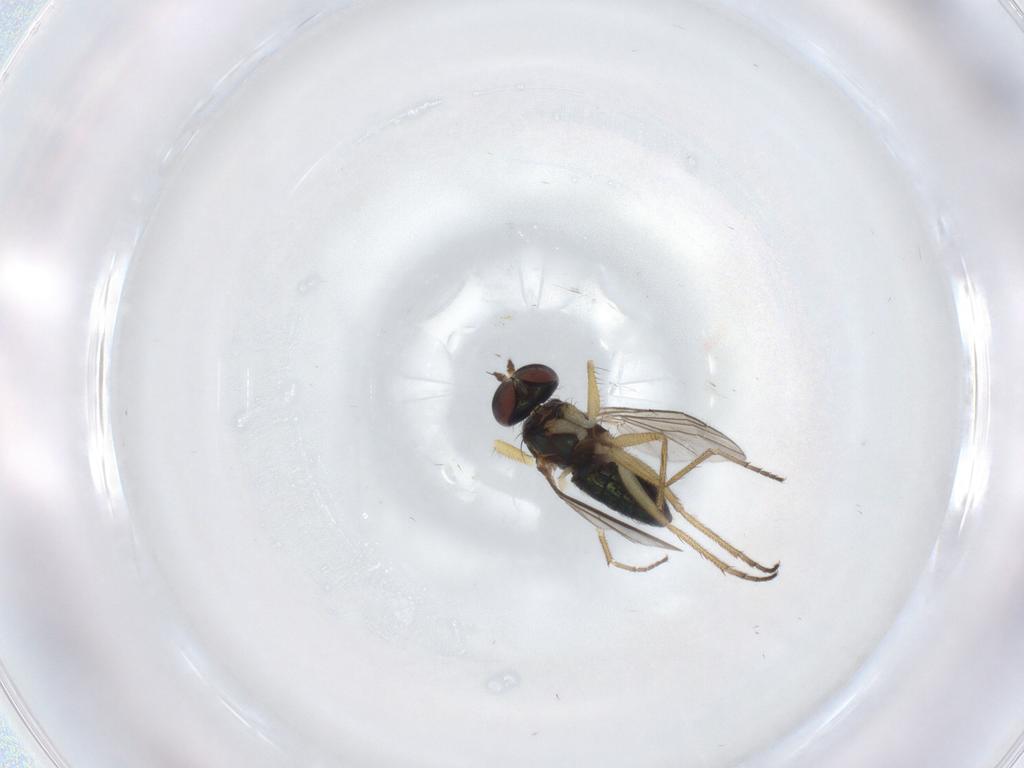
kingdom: Animalia
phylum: Arthropoda
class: Insecta
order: Diptera
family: Dolichopodidae
